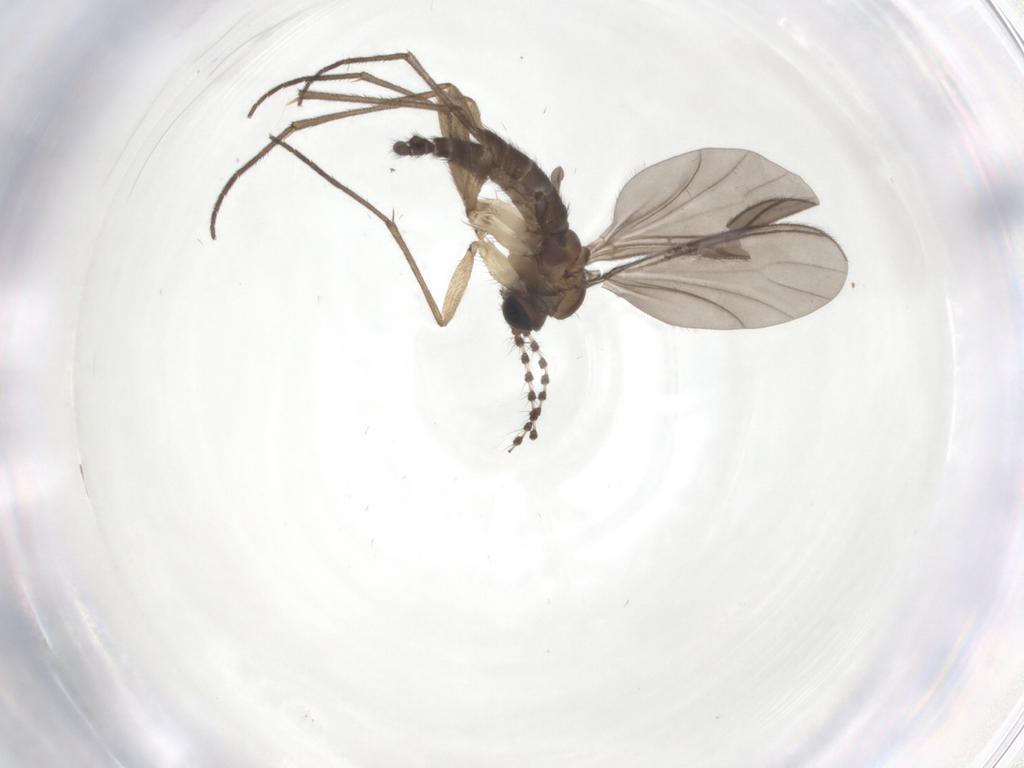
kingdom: Animalia
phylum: Arthropoda
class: Insecta
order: Diptera
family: Sciaridae
